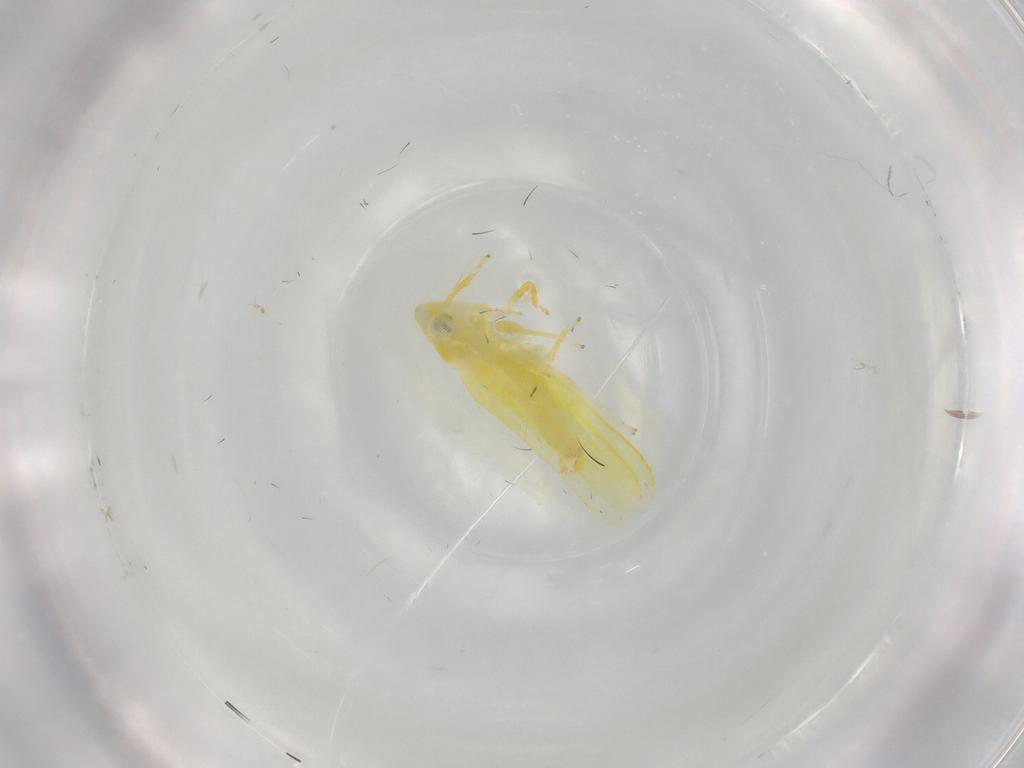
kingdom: Animalia
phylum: Arthropoda
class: Insecta
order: Hemiptera
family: Cicadellidae
